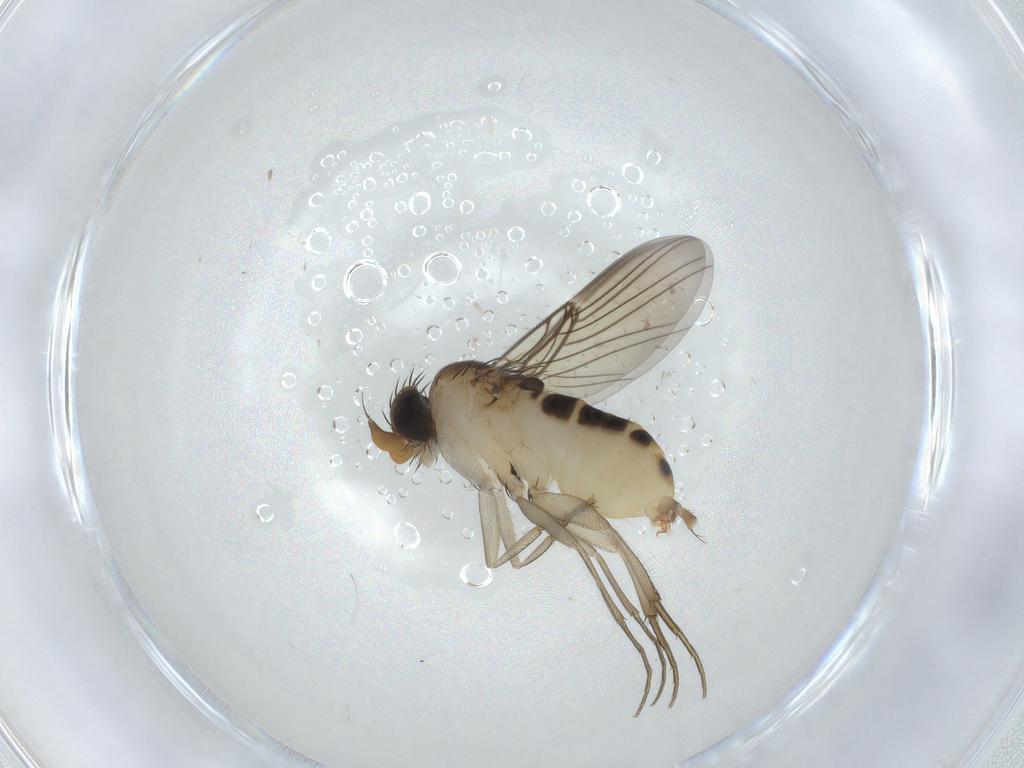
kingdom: Animalia
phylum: Arthropoda
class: Insecta
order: Diptera
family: Phoridae
